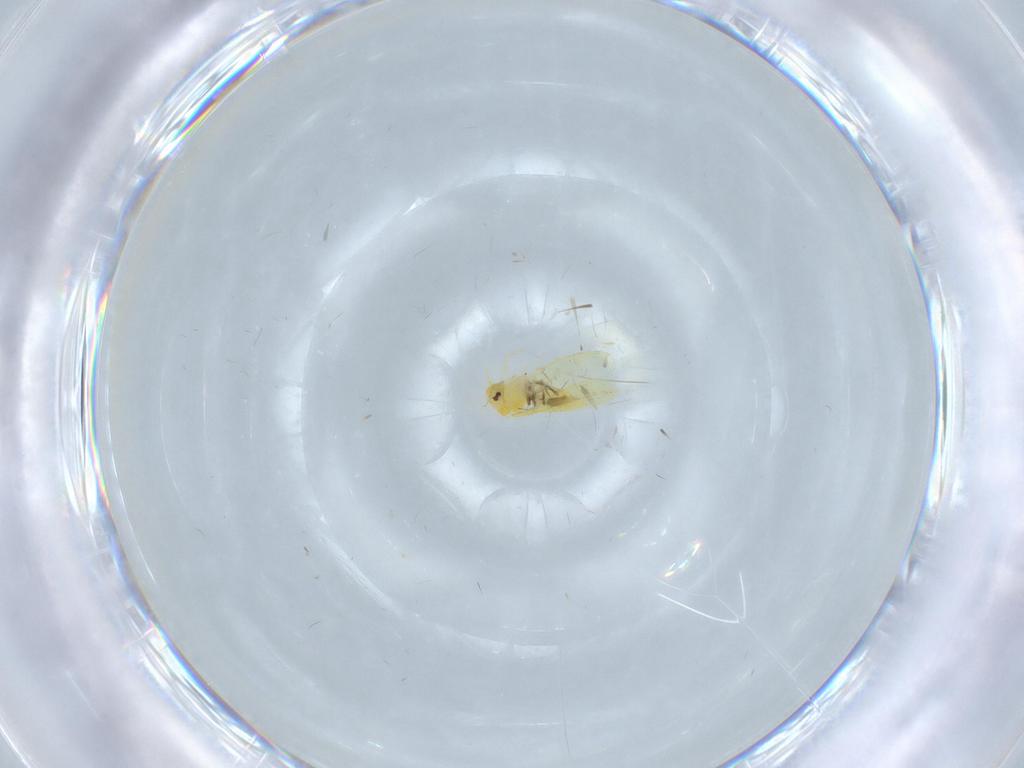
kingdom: Animalia
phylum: Arthropoda
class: Insecta
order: Hemiptera
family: Aleyrodidae
